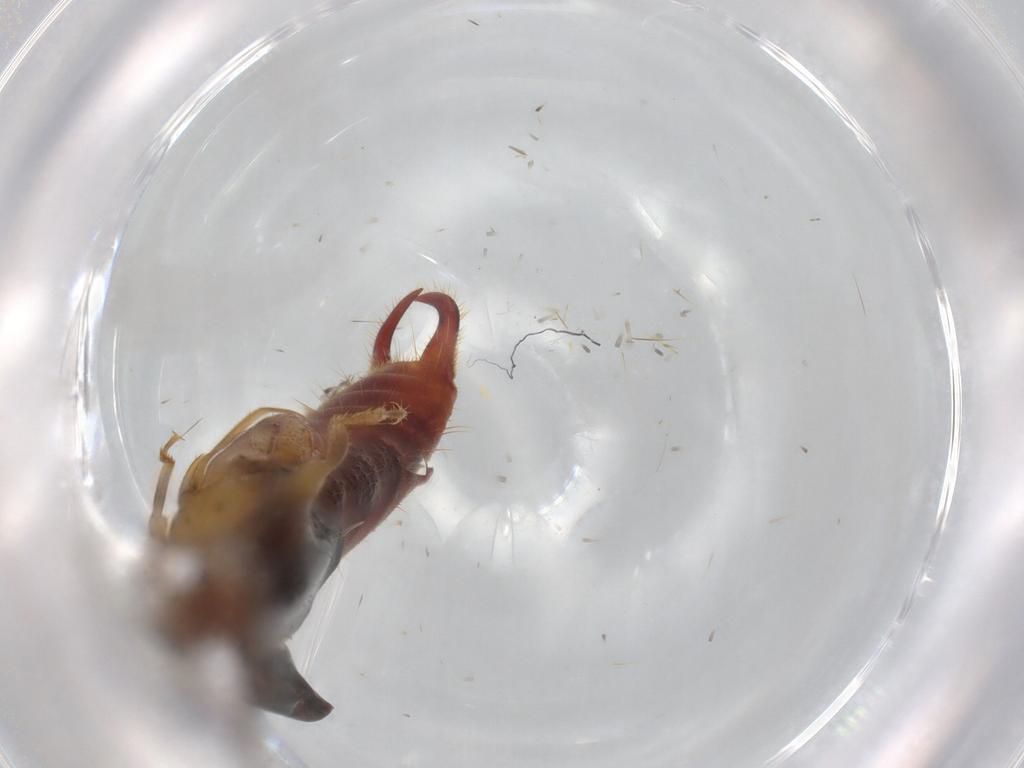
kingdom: Animalia
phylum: Arthropoda
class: Insecta
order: Dermaptera
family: Forficulidae
